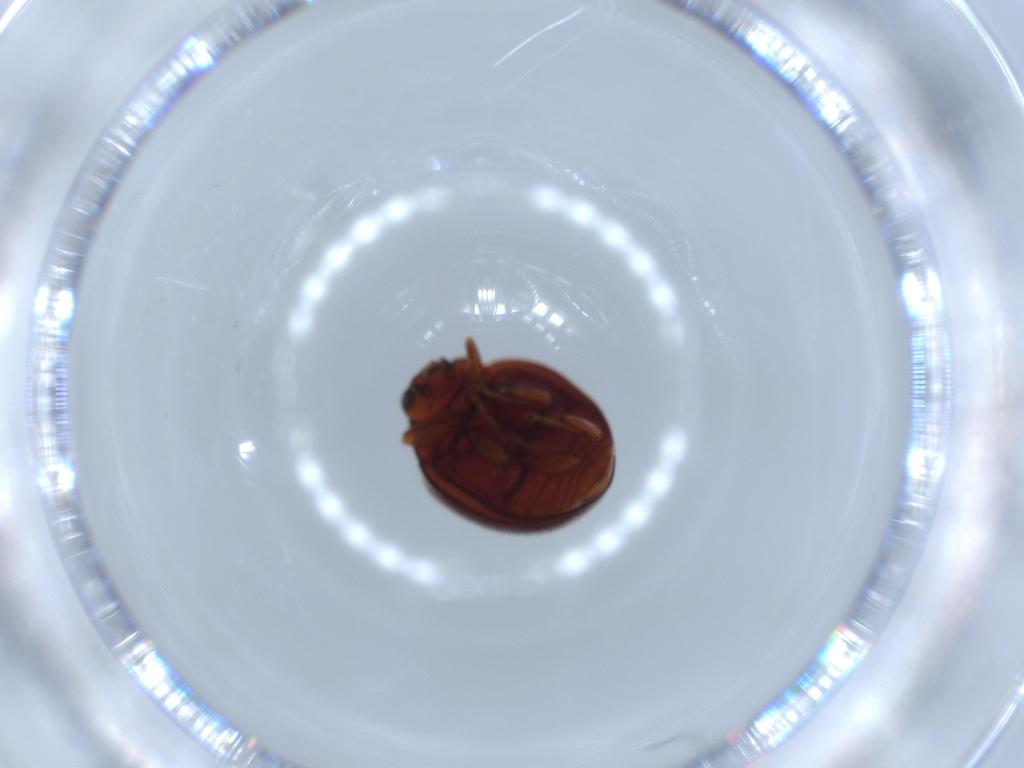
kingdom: Animalia
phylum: Arthropoda
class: Insecta
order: Coleoptera
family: Coccinellidae
